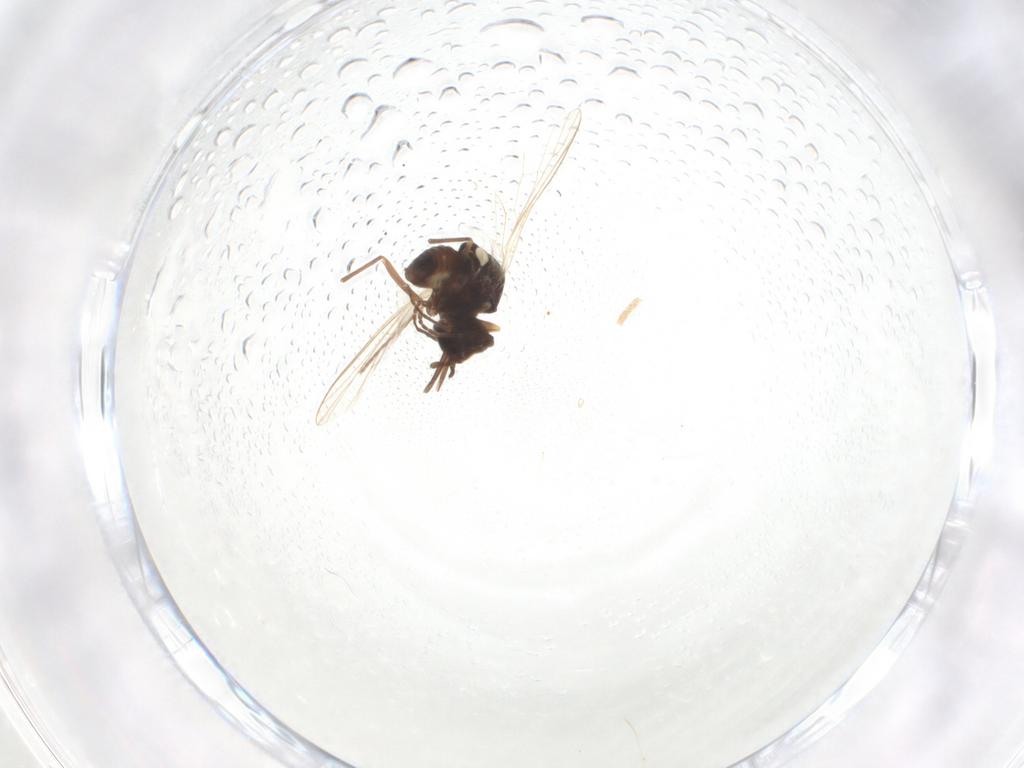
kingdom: Animalia
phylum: Arthropoda
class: Insecta
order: Diptera
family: Bombyliidae
